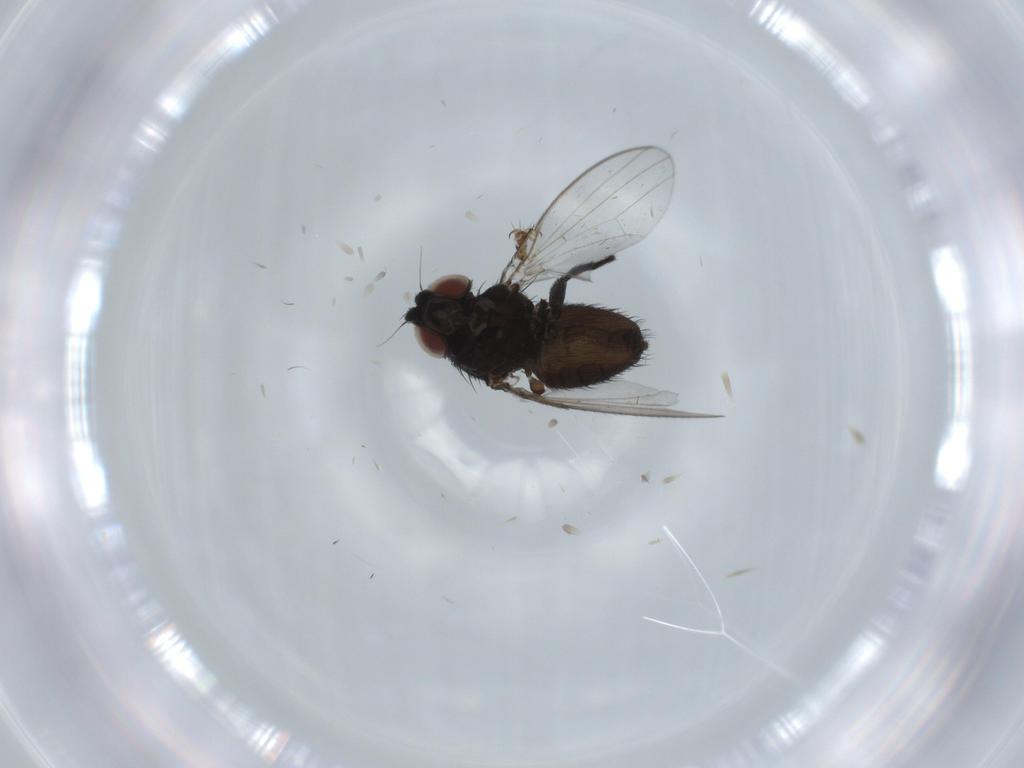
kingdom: Animalia
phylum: Arthropoda
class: Insecta
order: Diptera
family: Milichiidae
